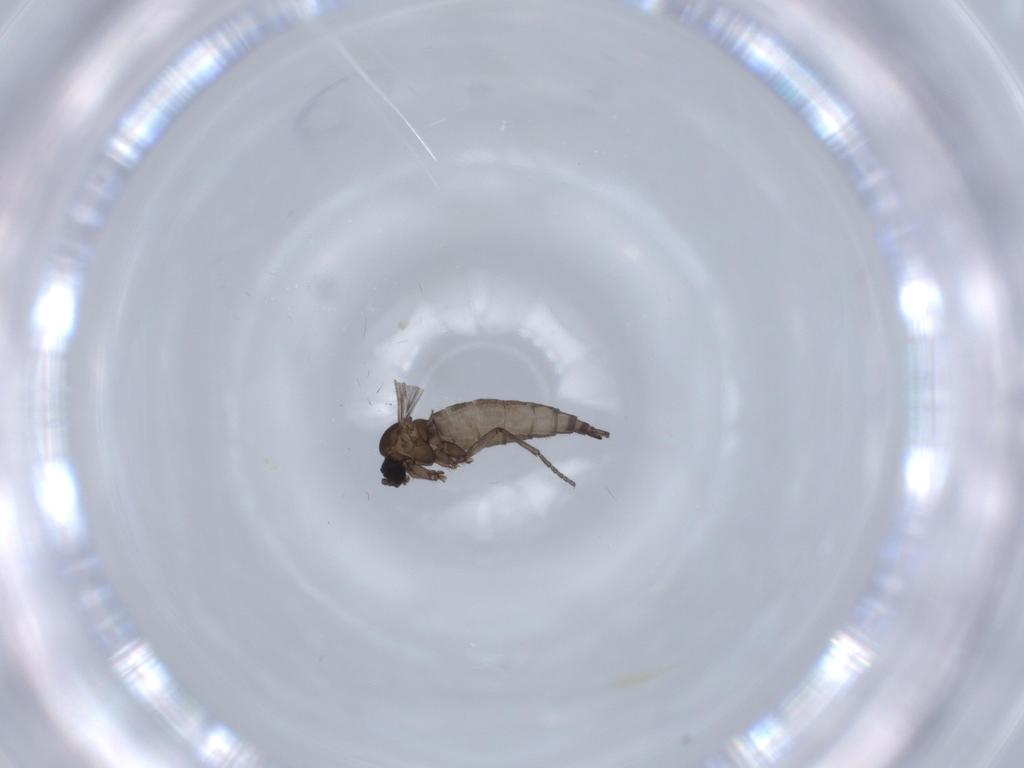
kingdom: Animalia
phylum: Arthropoda
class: Insecta
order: Diptera
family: Sciaridae
